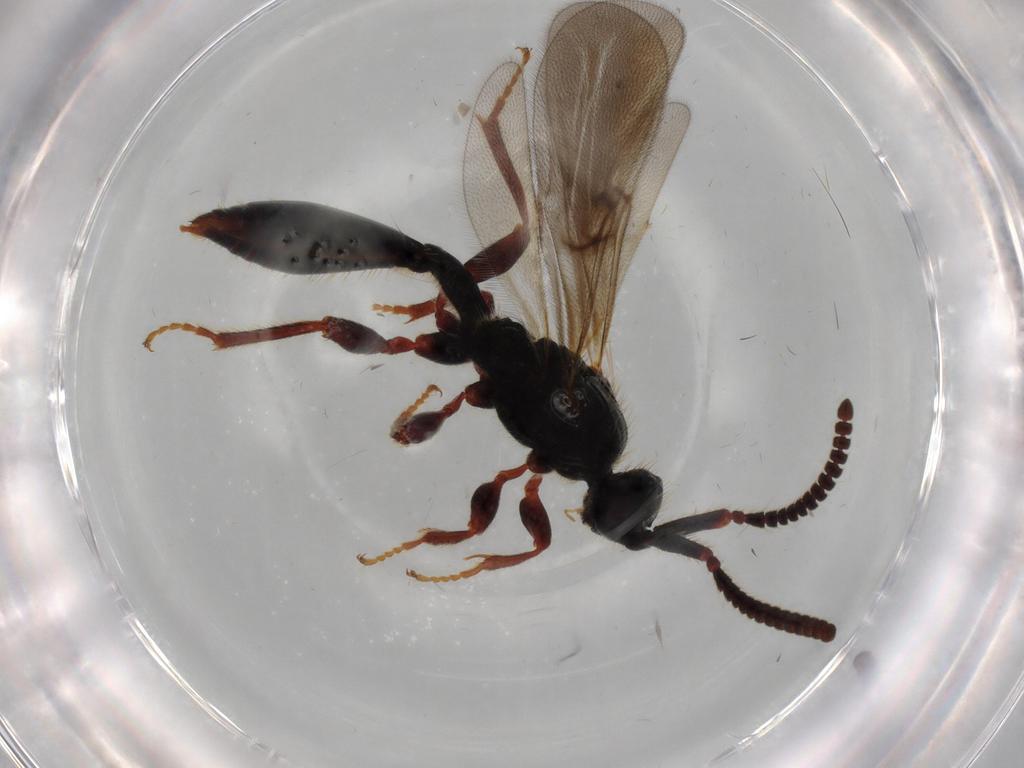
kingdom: Animalia
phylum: Arthropoda
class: Insecta
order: Hymenoptera
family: Diapriidae
